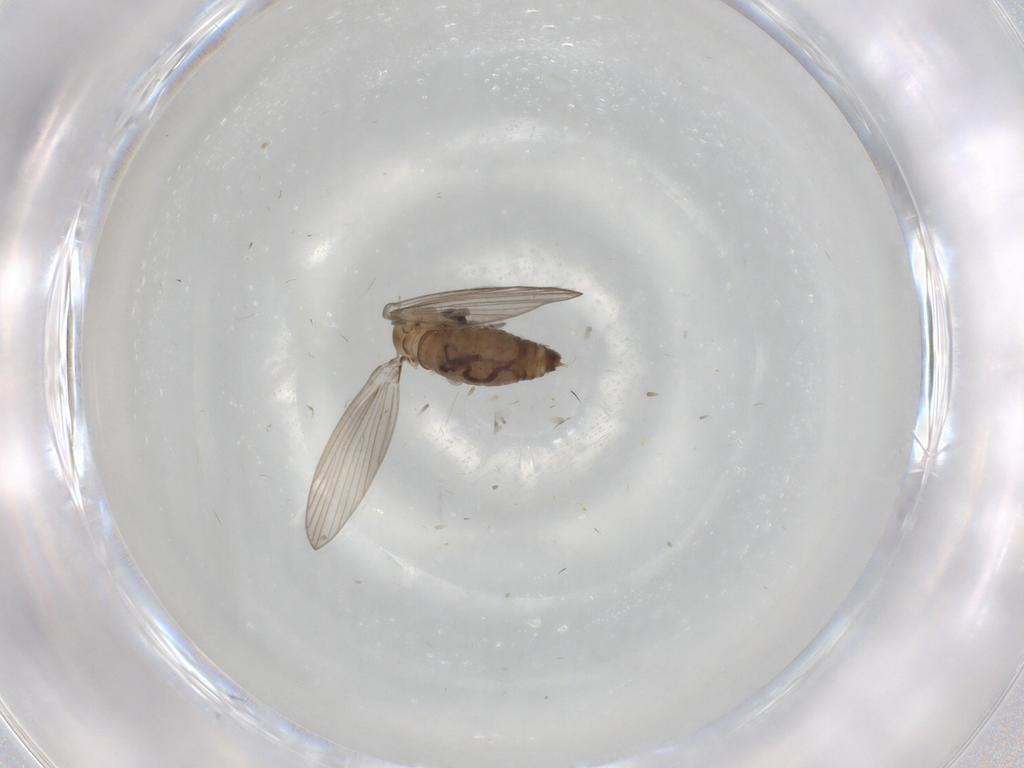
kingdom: Animalia
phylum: Arthropoda
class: Insecta
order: Diptera
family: Psychodidae
